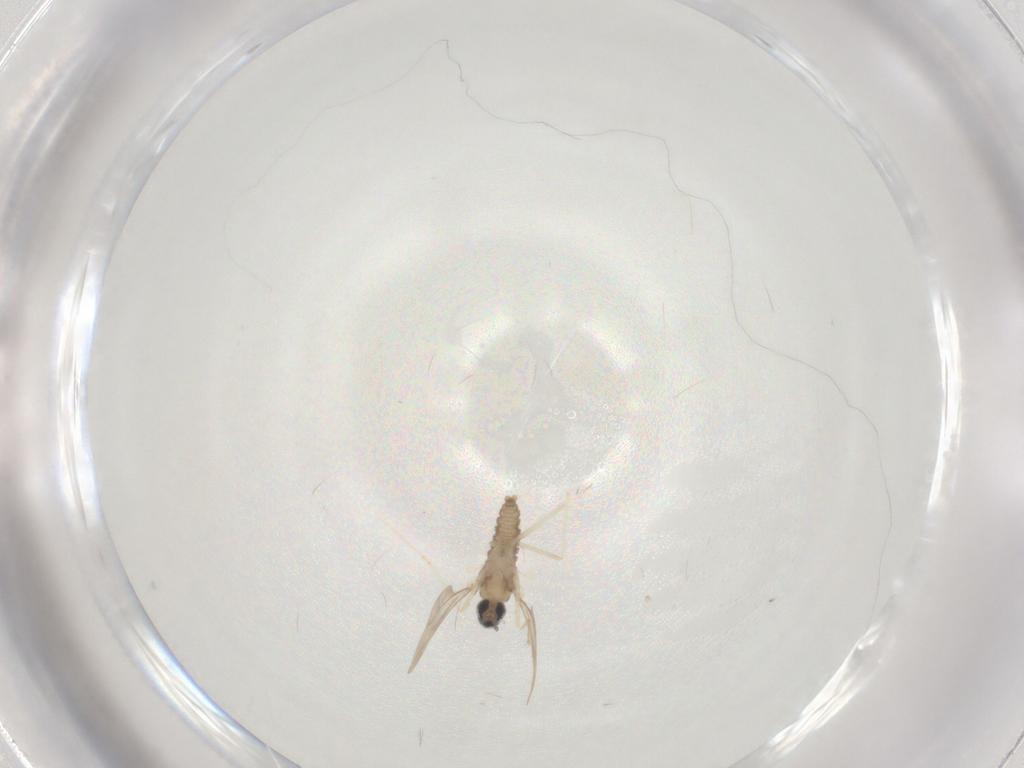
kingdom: Animalia
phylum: Arthropoda
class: Insecta
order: Diptera
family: Cecidomyiidae
